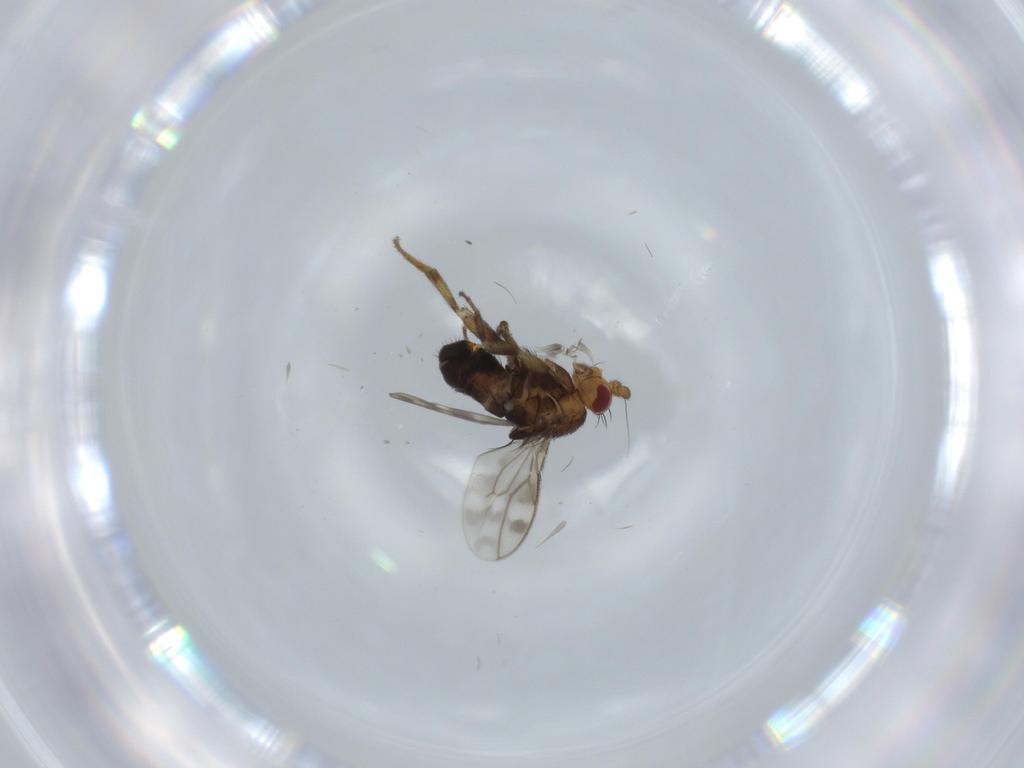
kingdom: Animalia
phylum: Arthropoda
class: Insecta
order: Diptera
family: Sphaeroceridae
